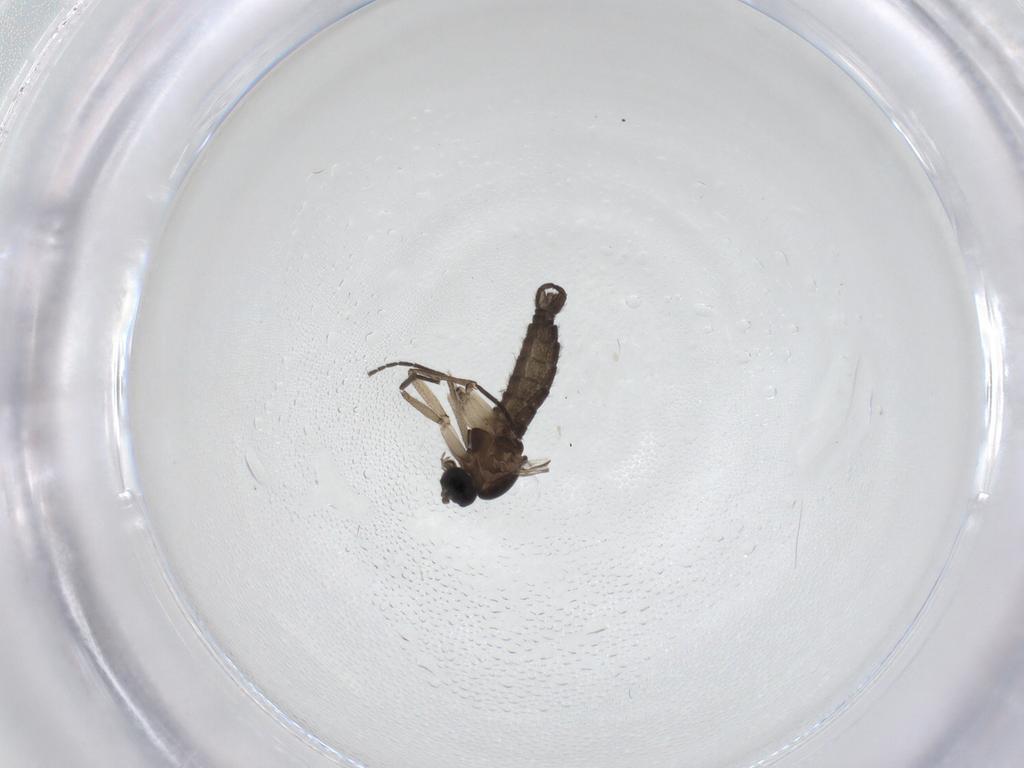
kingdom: Animalia
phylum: Arthropoda
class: Insecta
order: Diptera
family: Sciaridae
